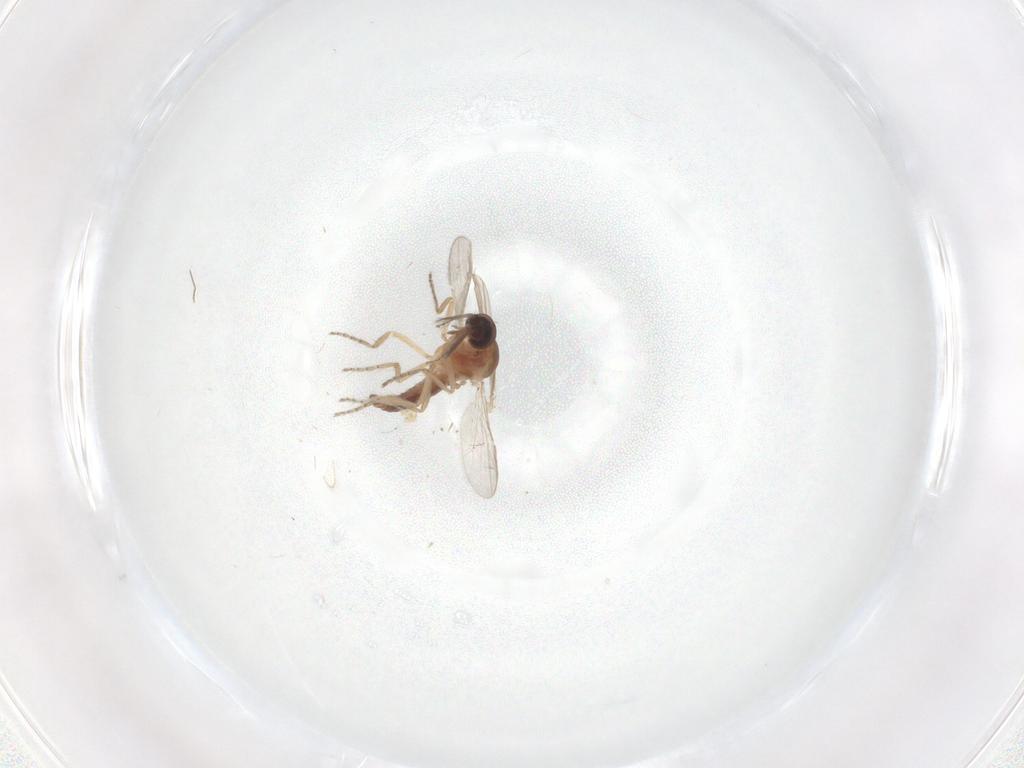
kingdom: Animalia
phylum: Arthropoda
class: Insecta
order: Diptera
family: Ceratopogonidae
